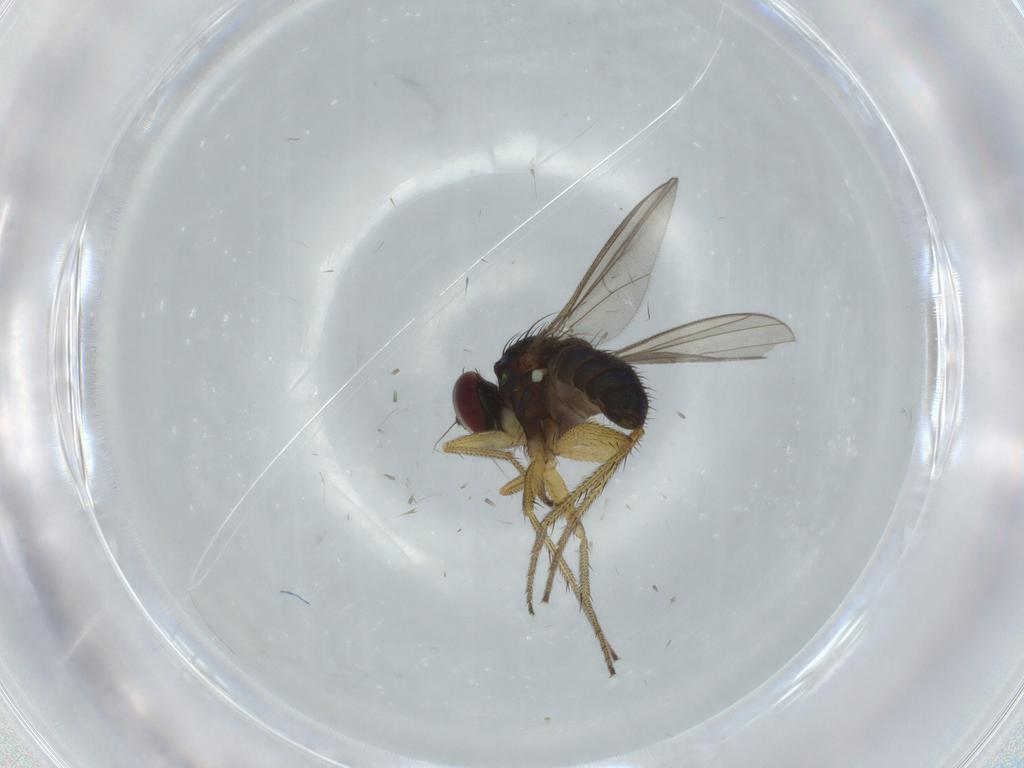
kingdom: Animalia
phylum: Arthropoda
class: Insecta
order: Diptera
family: Dolichopodidae
